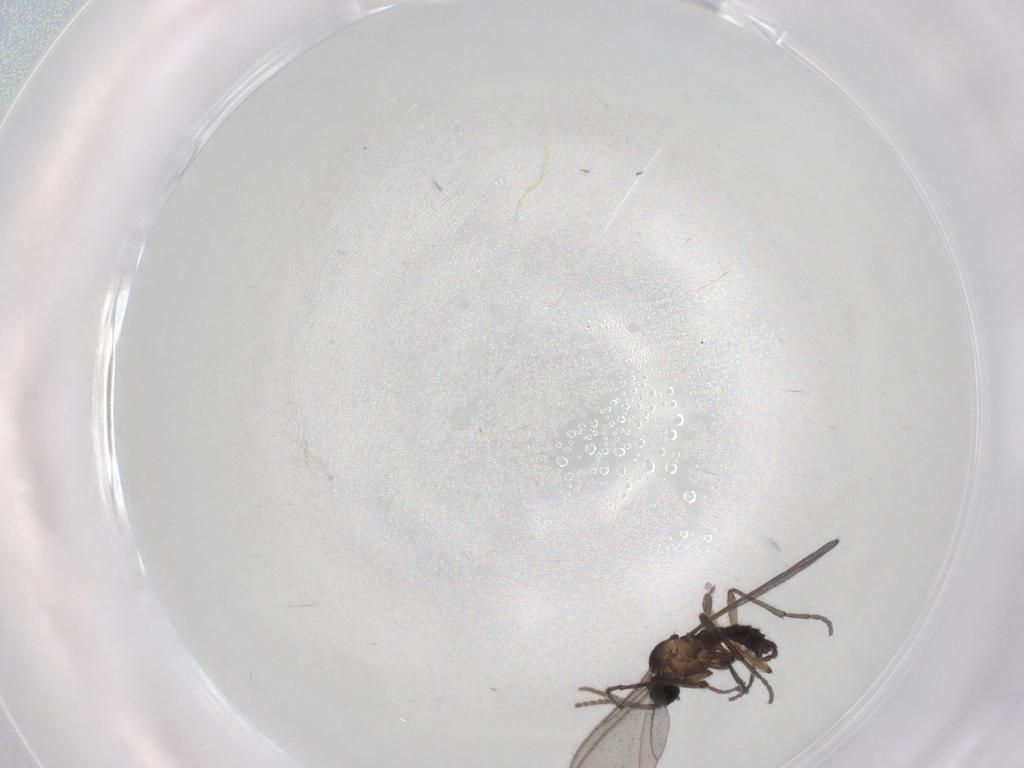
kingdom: Animalia
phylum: Arthropoda
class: Insecta
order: Diptera
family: Sciaridae
